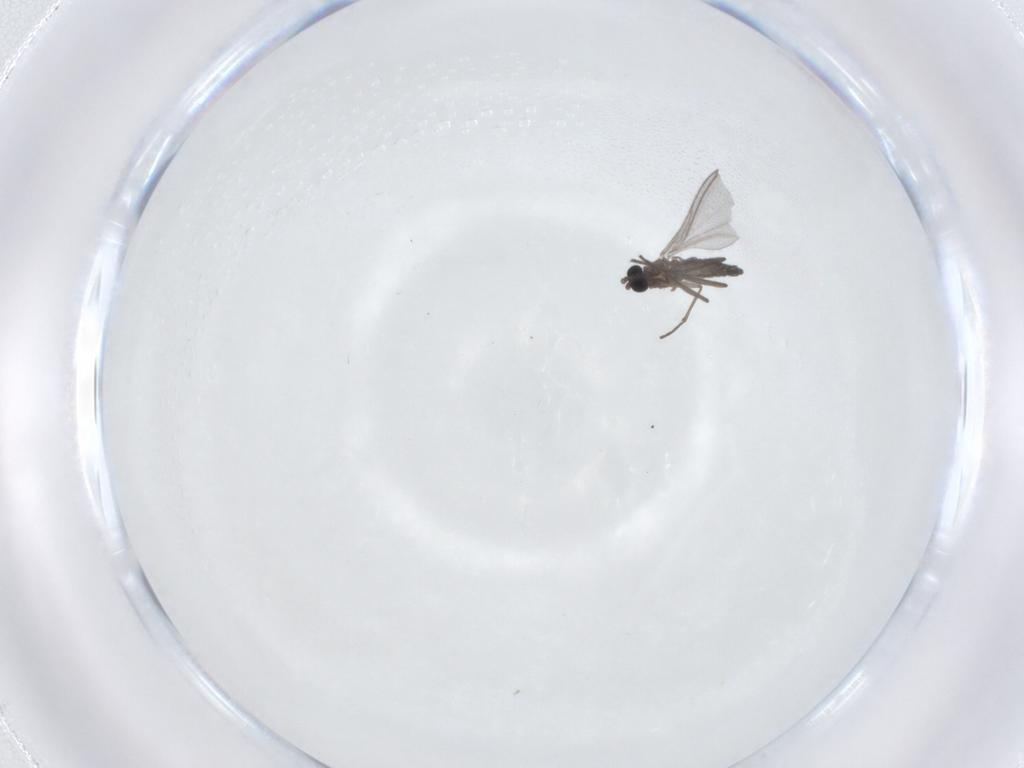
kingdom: Animalia
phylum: Arthropoda
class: Insecta
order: Diptera
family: Sciaridae
